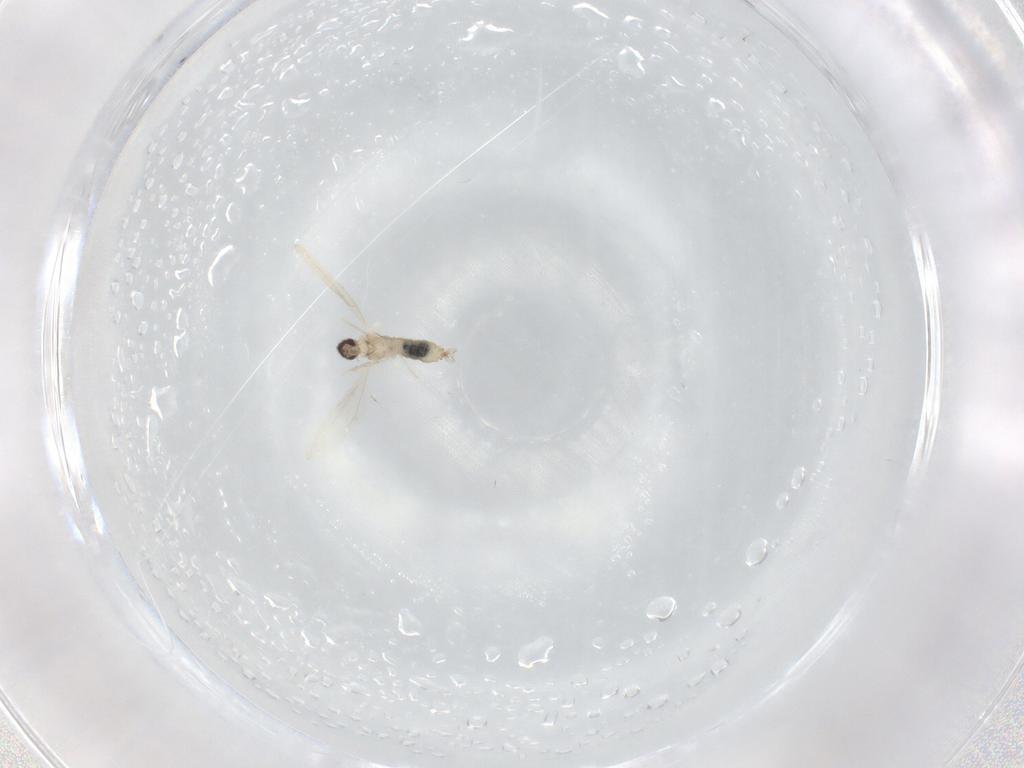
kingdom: Animalia
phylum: Arthropoda
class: Insecta
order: Diptera
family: Cecidomyiidae
